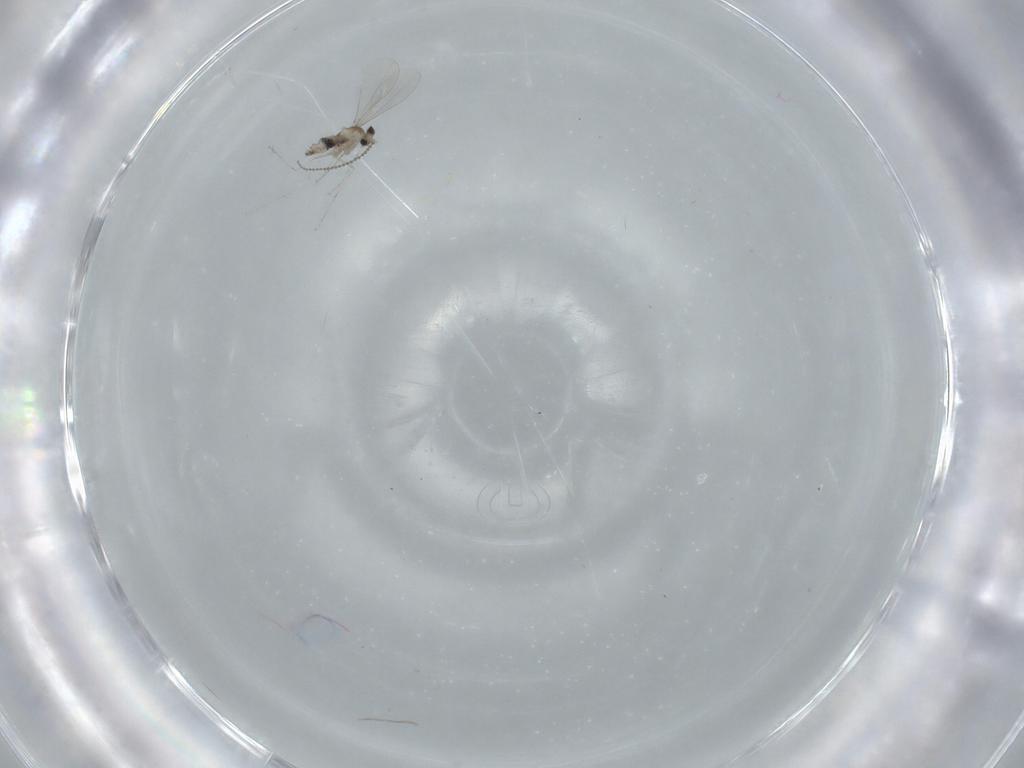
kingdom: Animalia
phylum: Arthropoda
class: Insecta
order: Diptera
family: Cecidomyiidae
